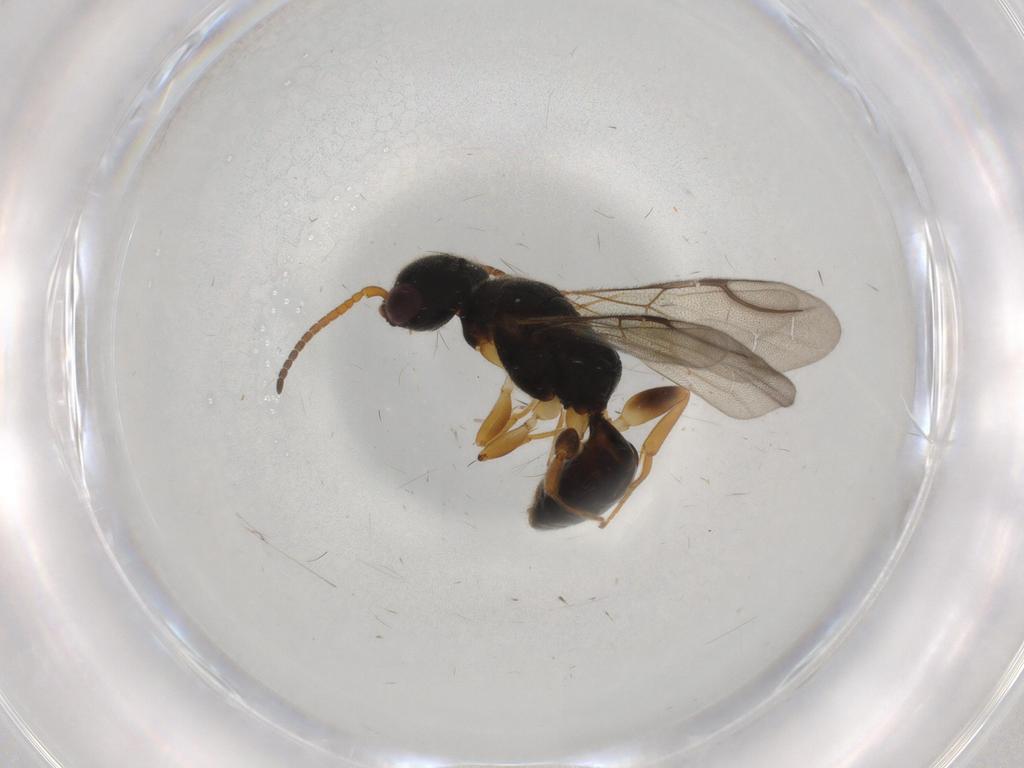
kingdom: Animalia
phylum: Arthropoda
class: Insecta
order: Hymenoptera
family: Bethylidae
